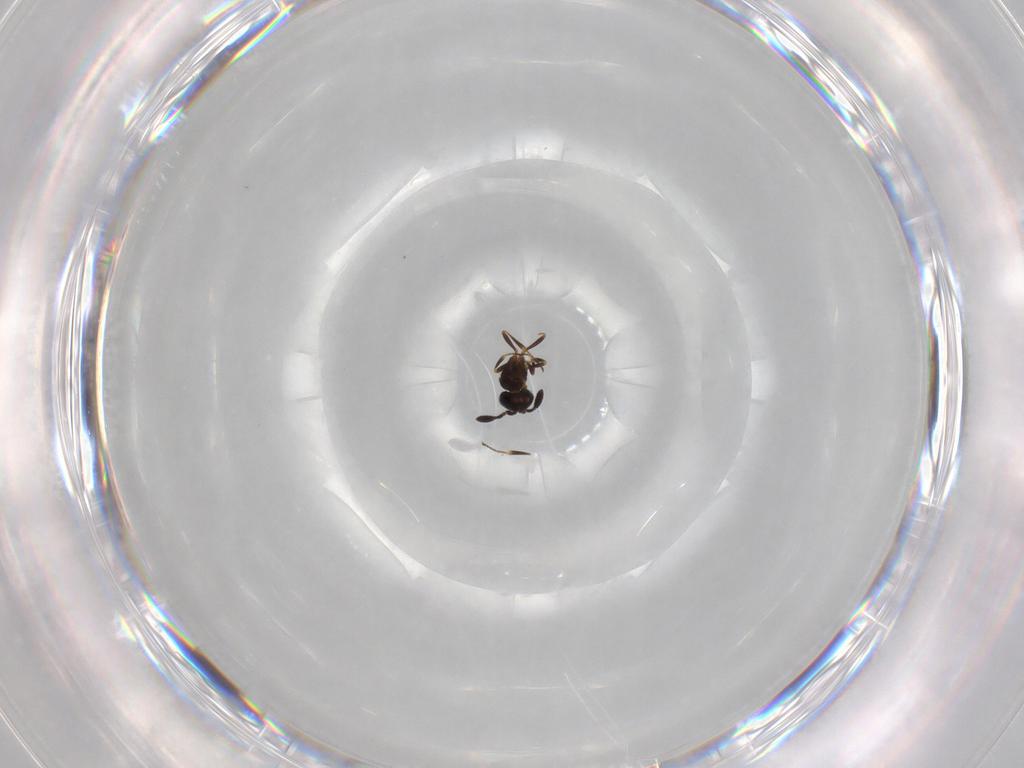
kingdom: Animalia
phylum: Arthropoda
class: Insecta
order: Hymenoptera
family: Scelionidae
